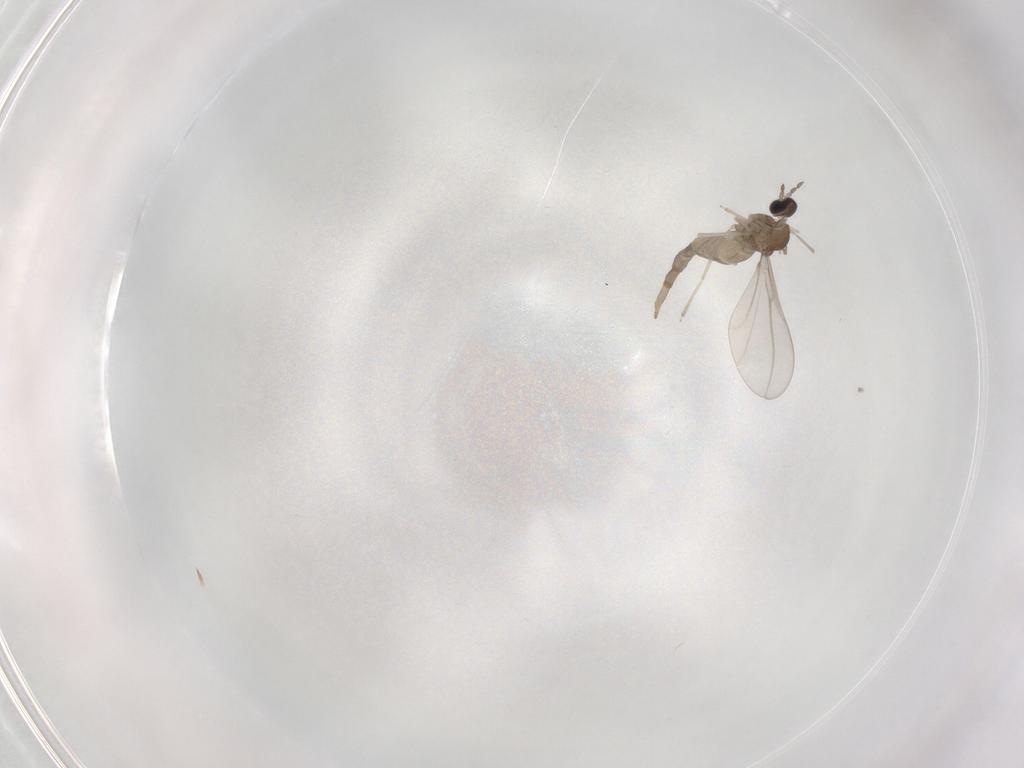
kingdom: Animalia
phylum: Arthropoda
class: Insecta
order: Diptera
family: Cecidomyiidae
